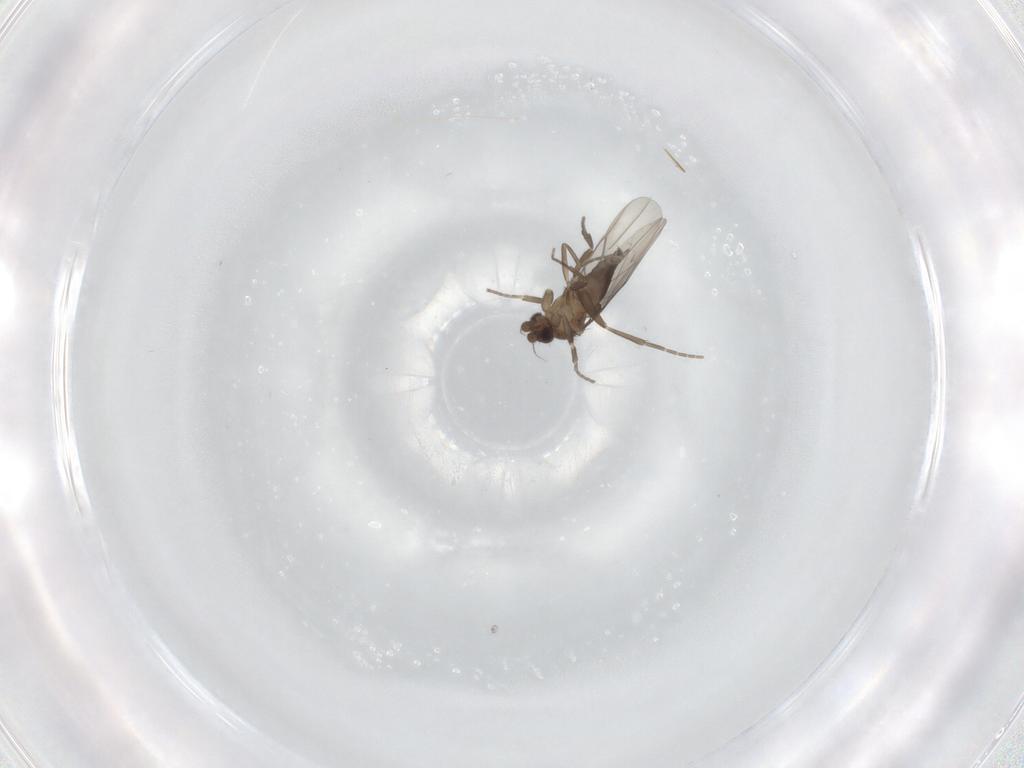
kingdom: Animalia
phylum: Arthropoda
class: Insecta
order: Diptera
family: Phoridae
